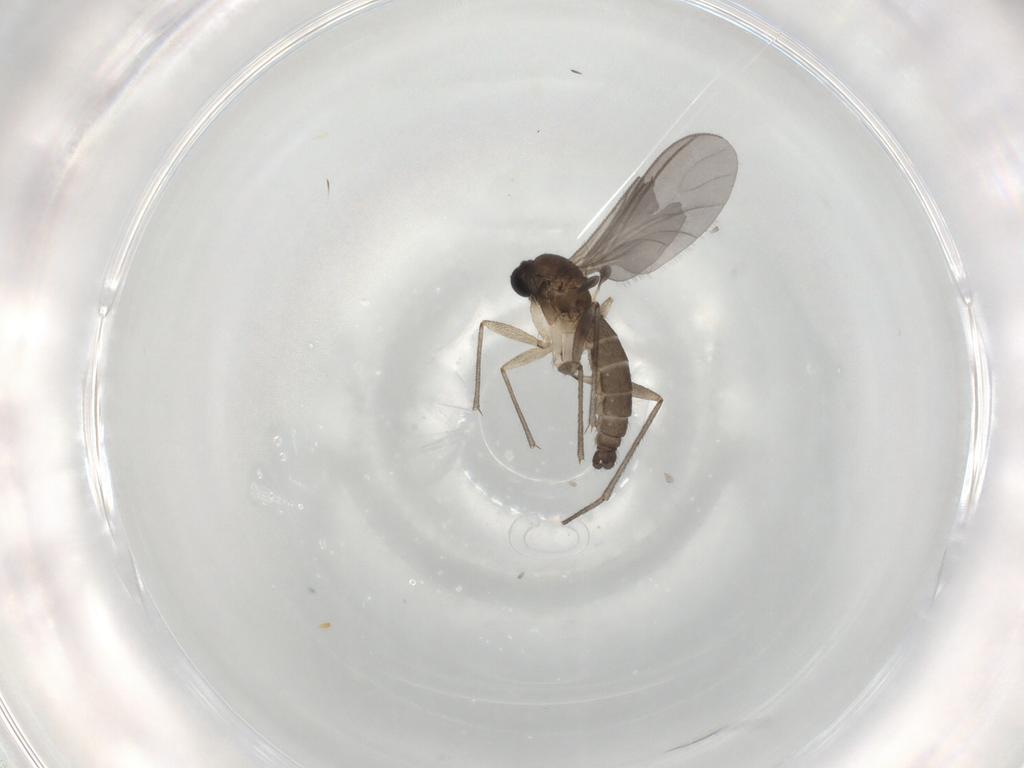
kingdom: Animalia
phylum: Arthropoda
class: Insecta
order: Diptera
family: Sciaridae
